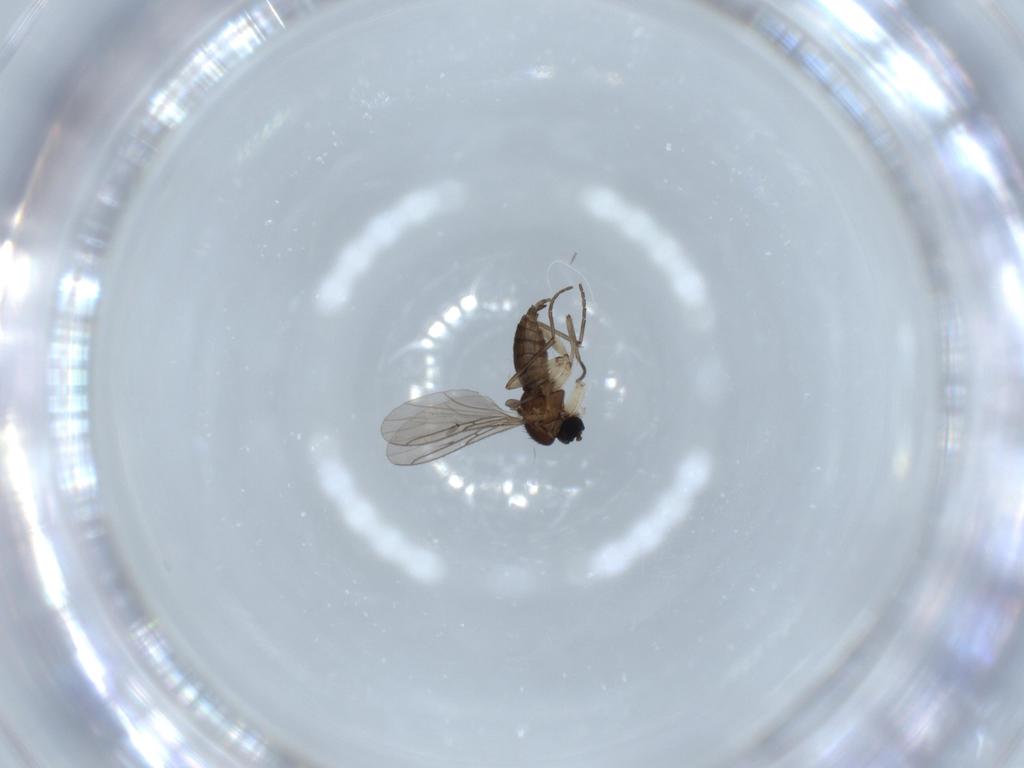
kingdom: Animalia
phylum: Arthropoda
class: Insecta
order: Diptera
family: Sciaridae
